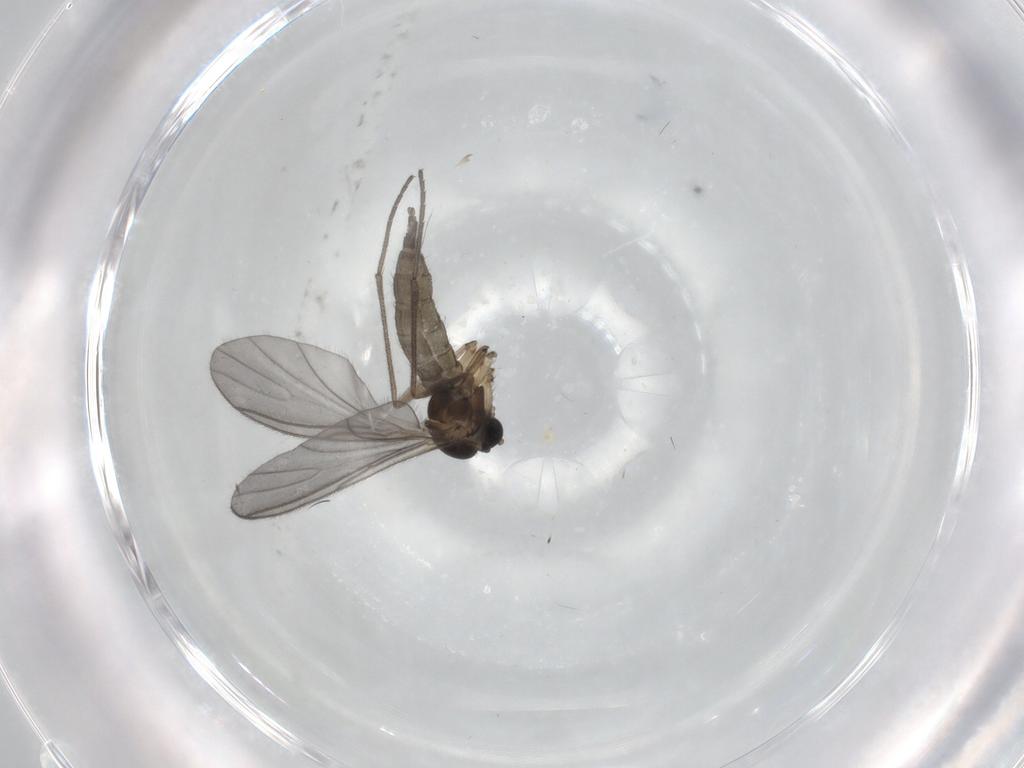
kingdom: Animalia
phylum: Arthropoda
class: Insecta
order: Diptera
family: Sciaridae
